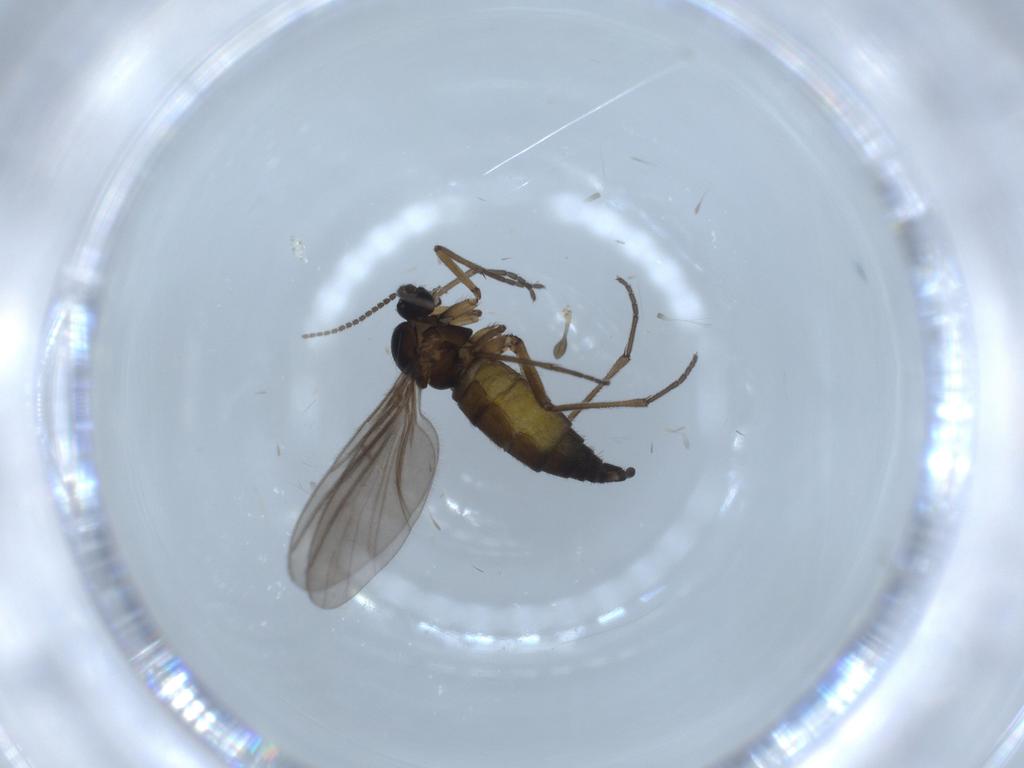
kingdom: Animalia
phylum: Arthropoda
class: Insecta
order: Diptera
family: Sciaridae
